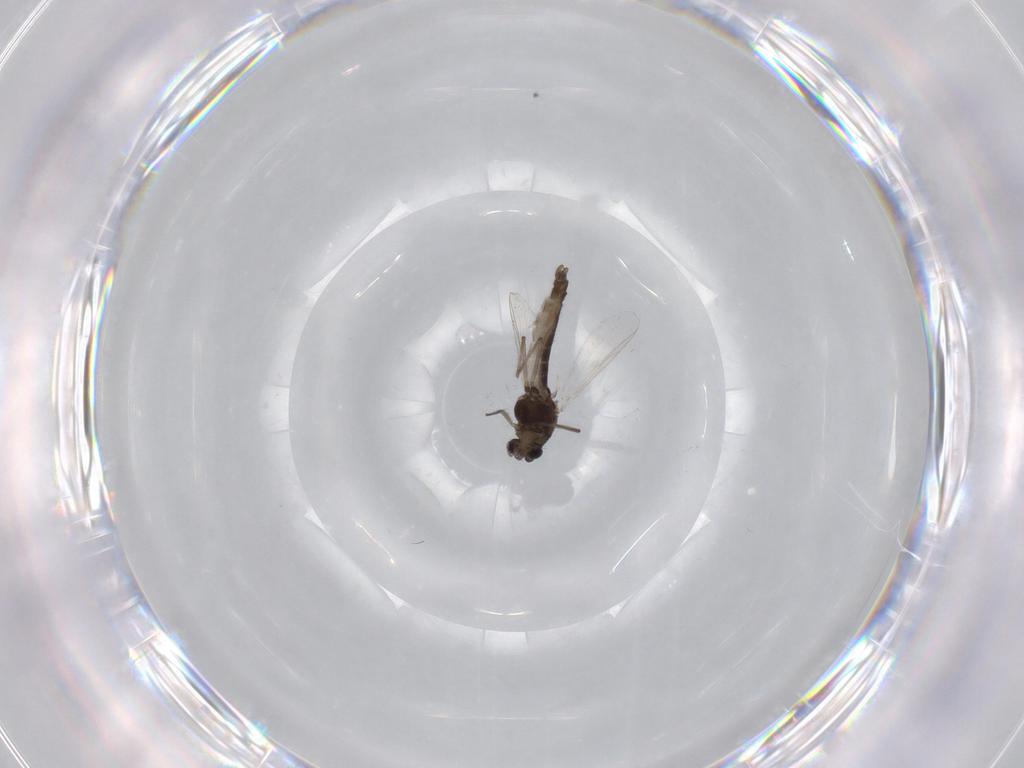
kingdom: Animalia
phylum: Arthropoda
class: Insecta
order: Diptera
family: Chironomidae
